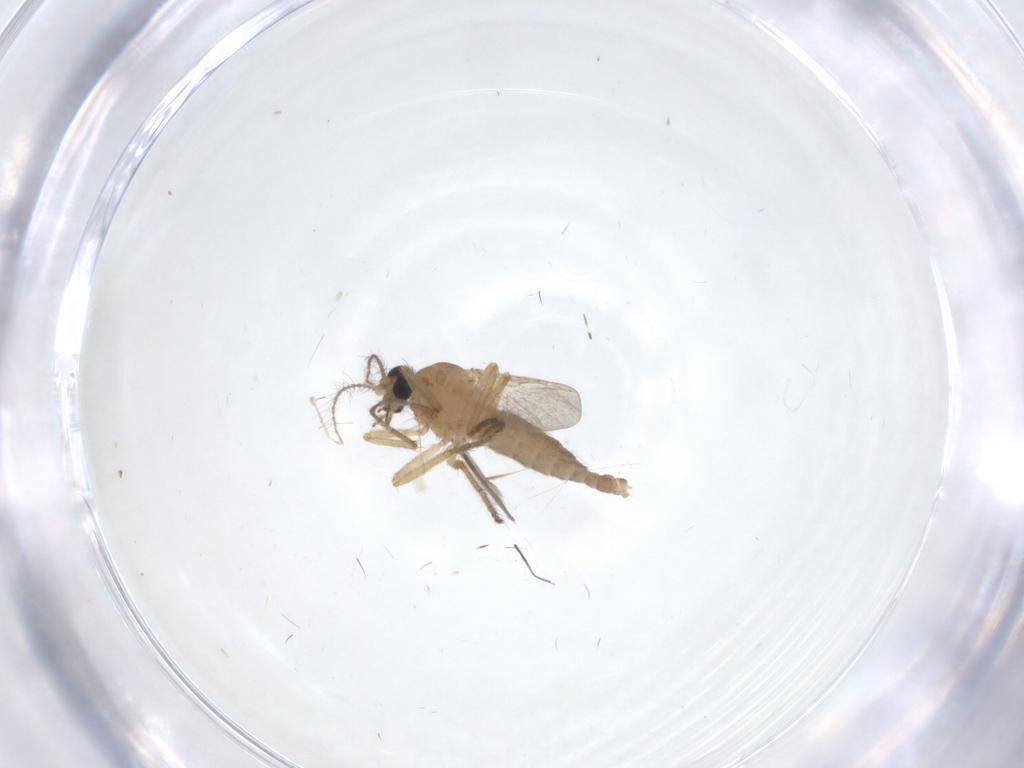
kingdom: Animalia
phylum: Arthropoda
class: Insecta
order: Diptera
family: Ceratopogonidae
